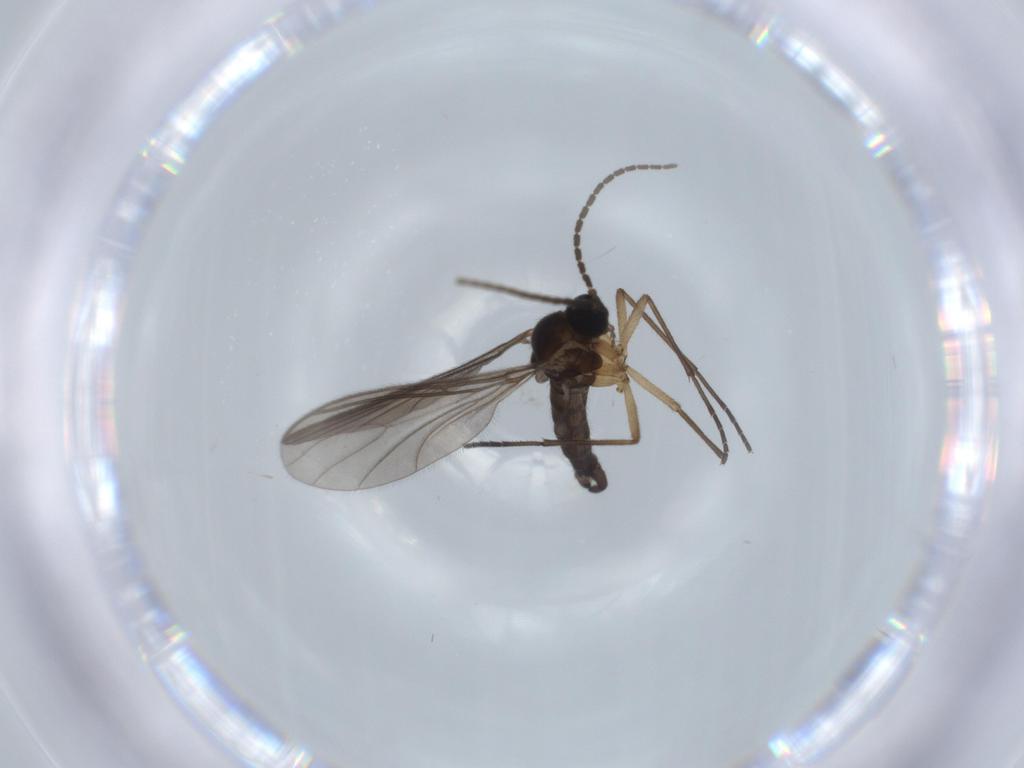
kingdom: Animalia
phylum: Arthropoda
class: Insecta
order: Diptera
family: Sciaridae
